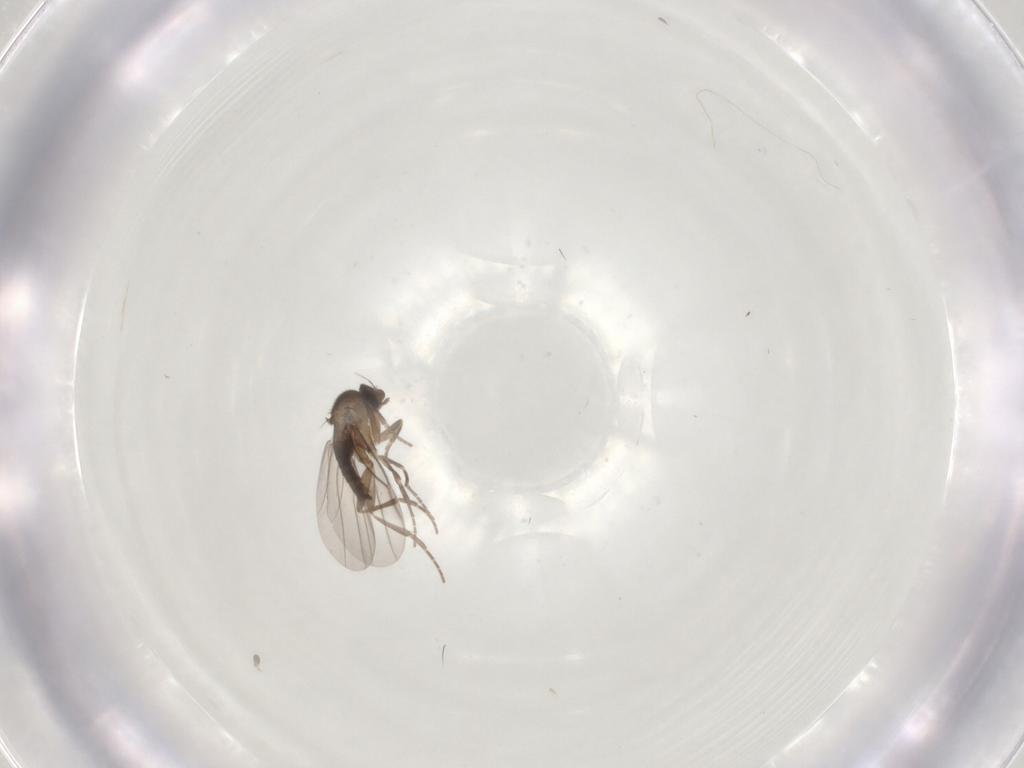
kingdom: Animalia
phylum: Arthropoda
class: Insecta
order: Diptera
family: Phoridae
